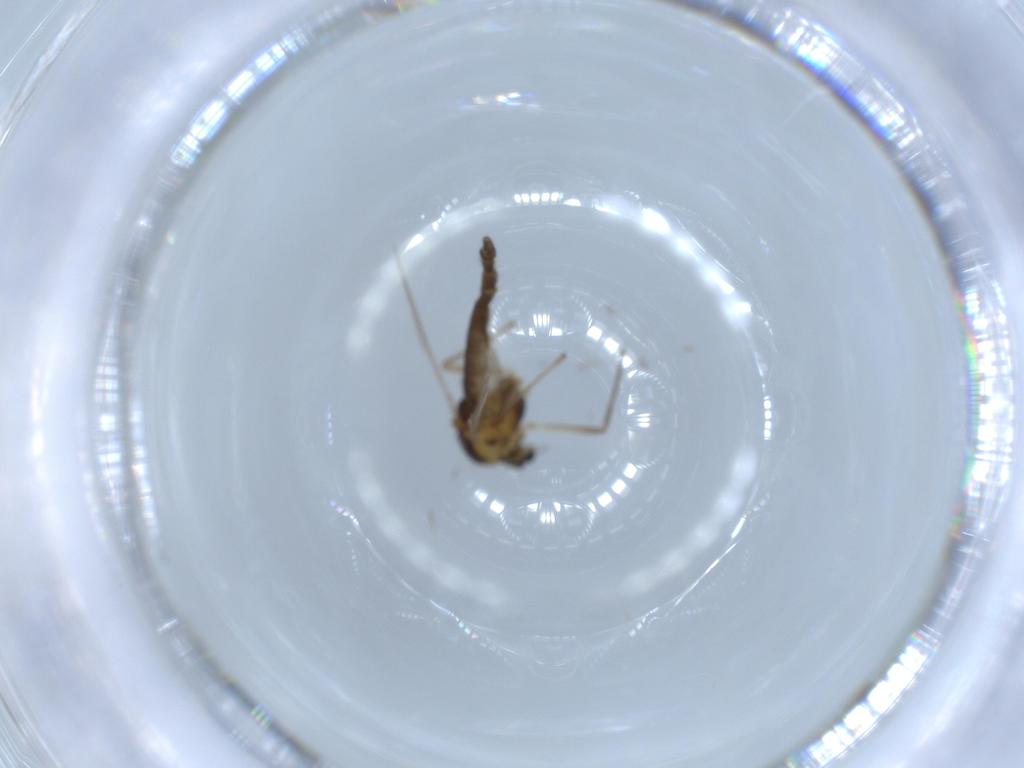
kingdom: Animalia
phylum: Arthropoda
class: Insecta
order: Diptera
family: Chironomidae
